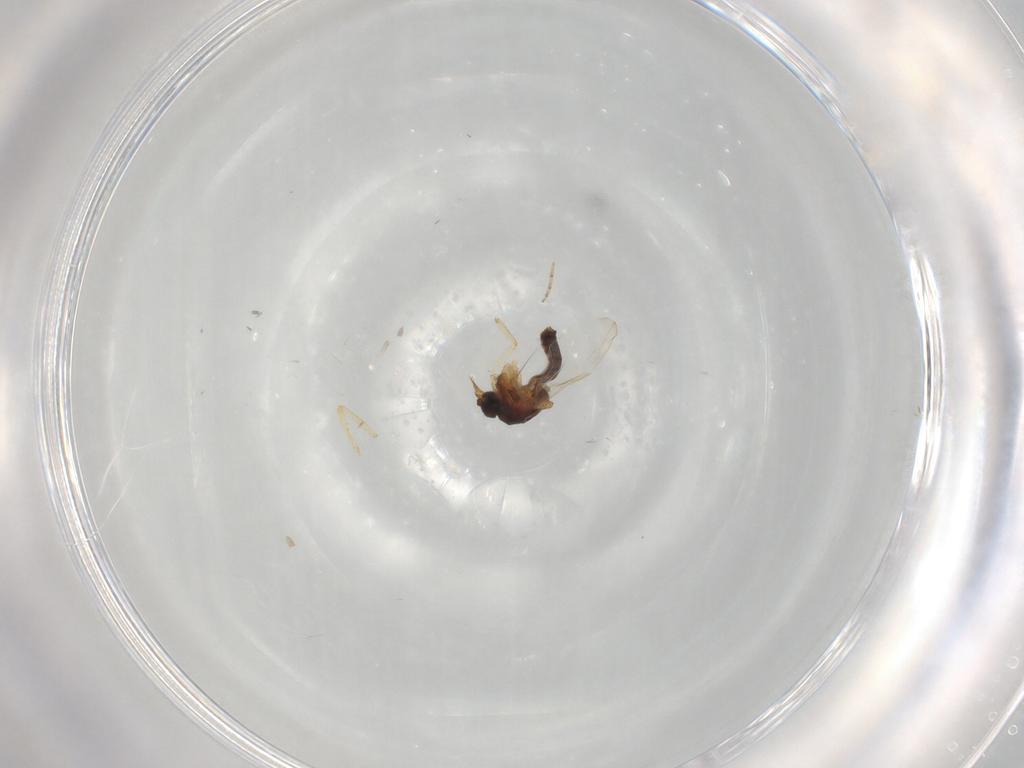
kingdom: Animalia
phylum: Arthropoda
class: Insecta
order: Diptera
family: Ceratopogonidae
